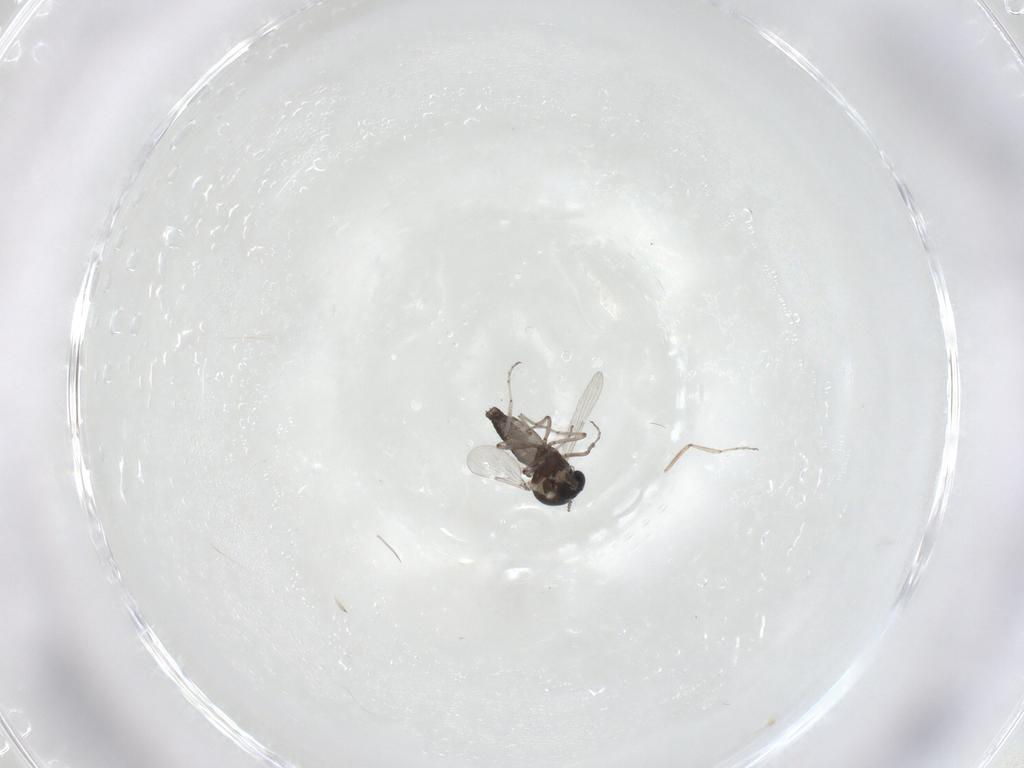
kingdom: Animalia
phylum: Arthropoda
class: Insecta
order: Diptera
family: Ceratopogonidae
